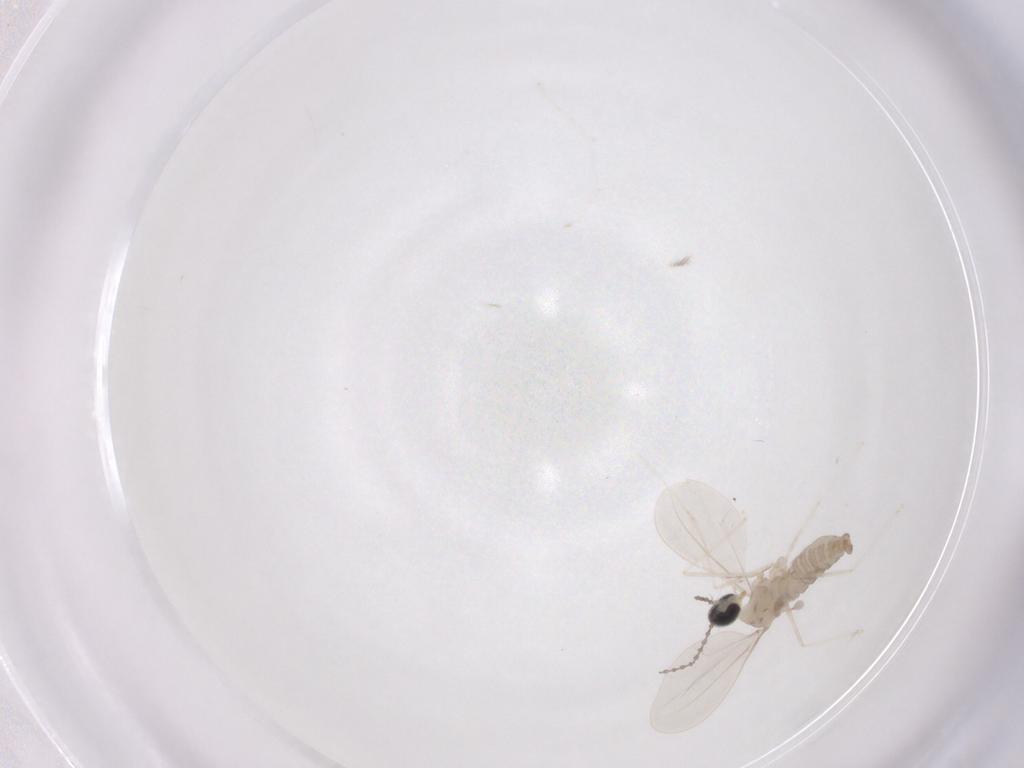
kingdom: Animalia
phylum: Arthropoda
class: Insecta
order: Diptera
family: Cecidomyiidae
